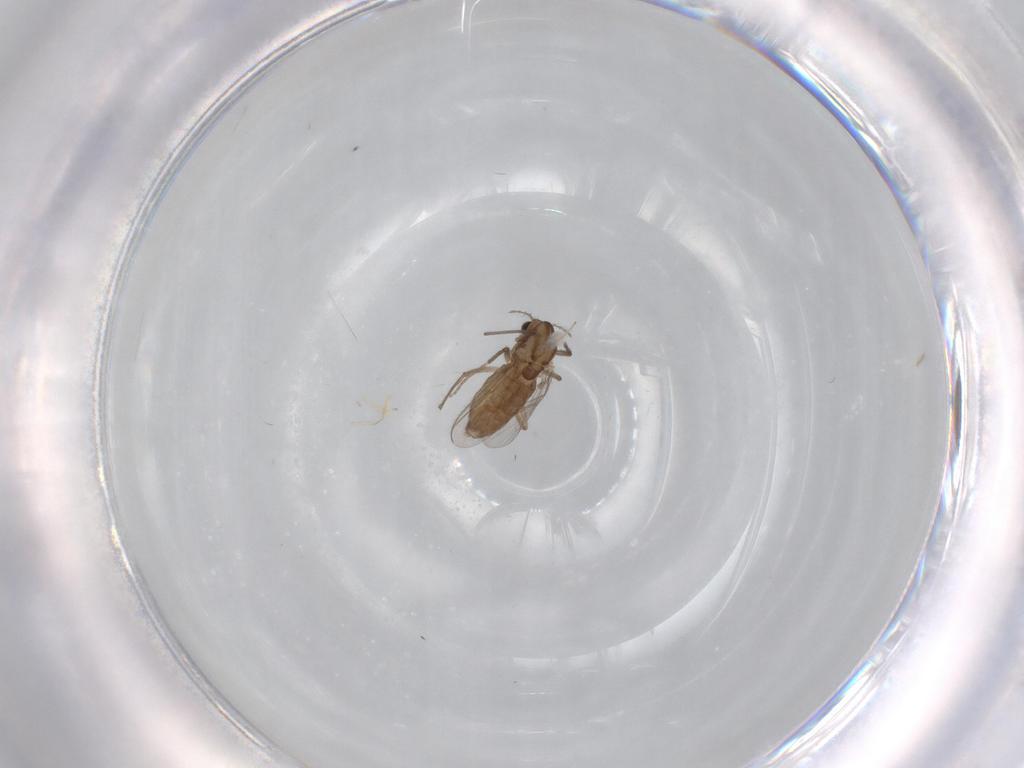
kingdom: Animalia
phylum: Arthropoda
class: Insecta
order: Diptera
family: Chironomidae
